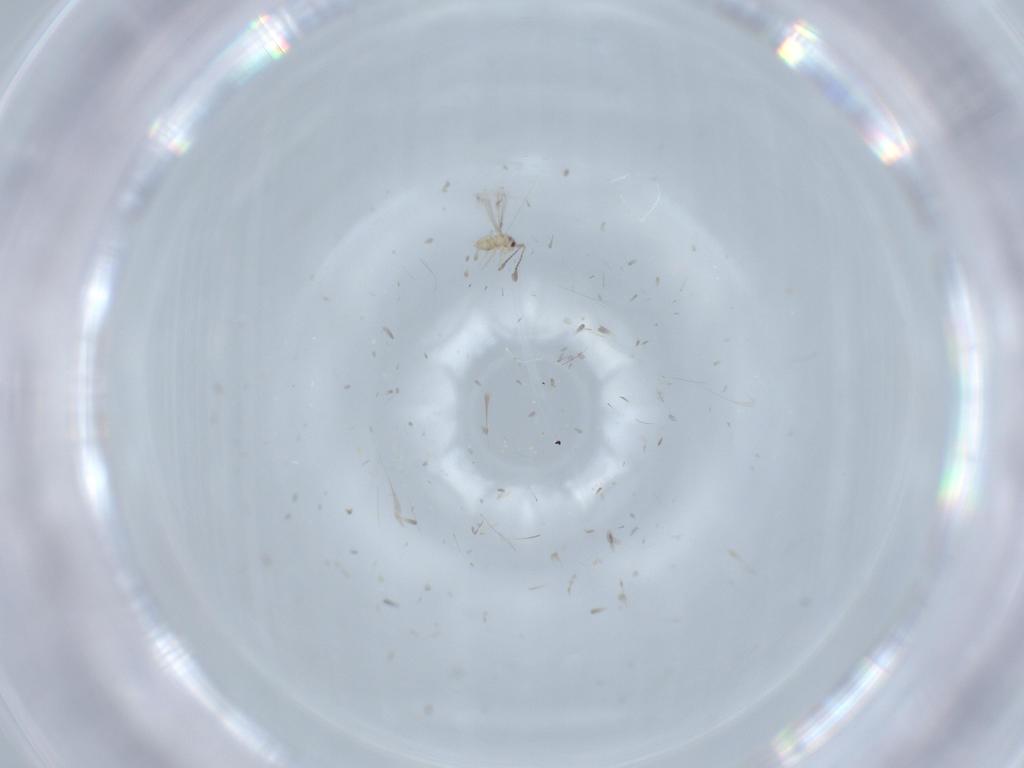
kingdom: Animalia
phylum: Arthropoda
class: Insecta
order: Hymenoptera
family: Mymaridae
